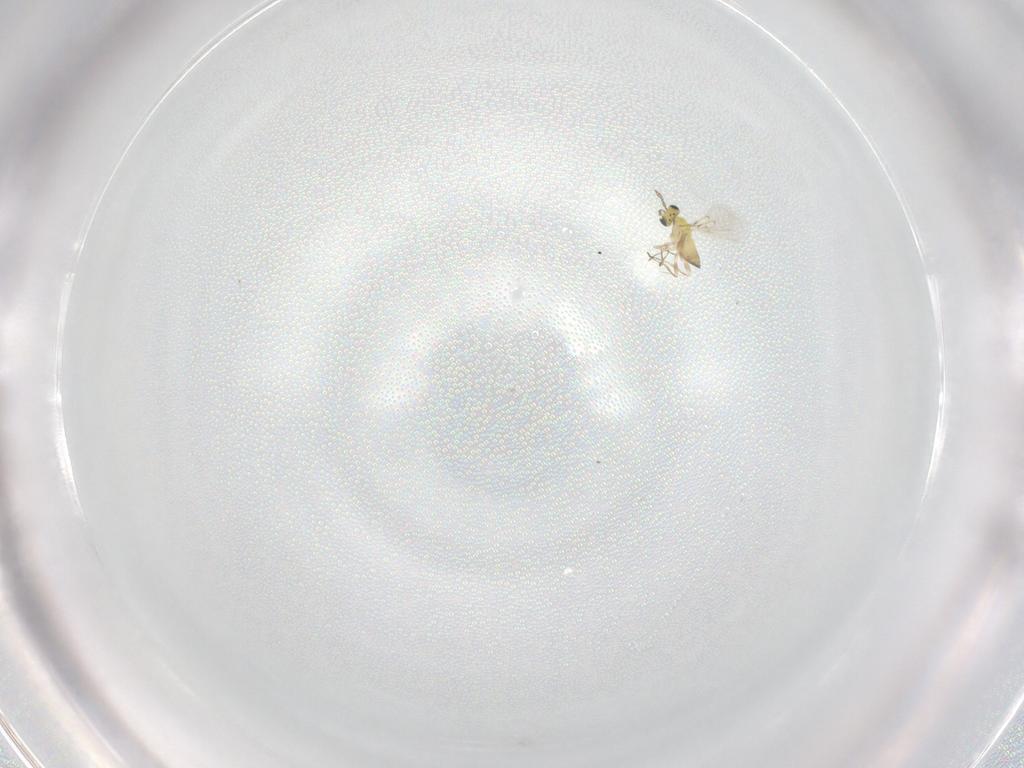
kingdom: Animalia
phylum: Arthropoda
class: Insecta
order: Hymenoptera
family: Trichogrammatidae
